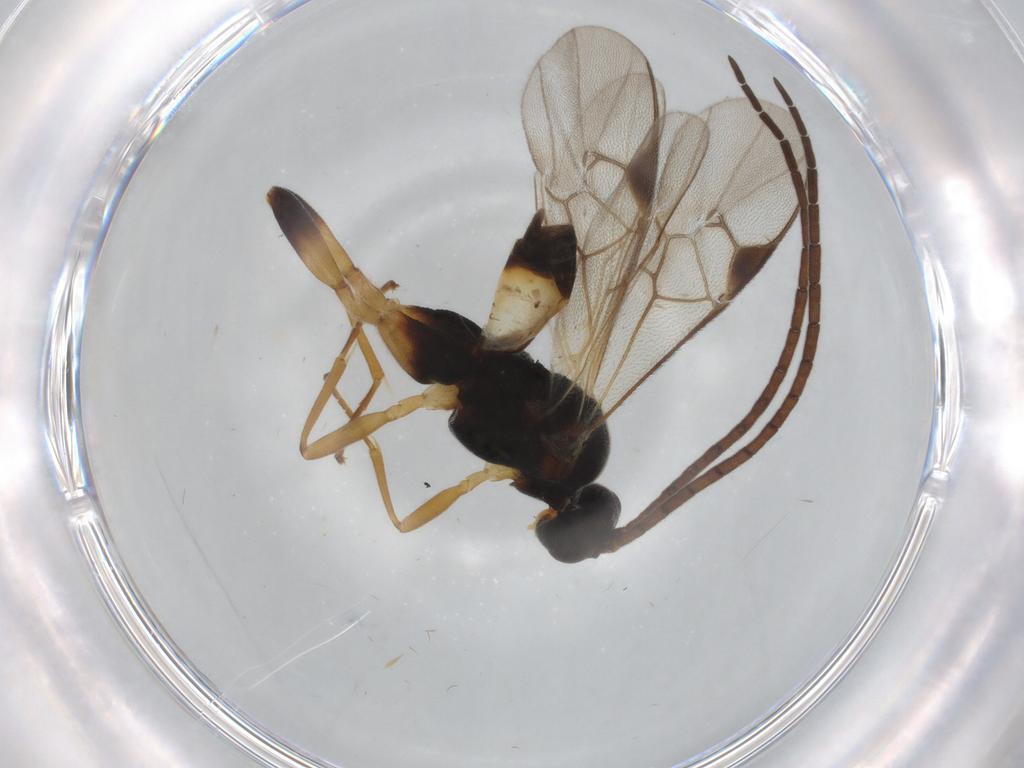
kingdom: Animalia
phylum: Arthropoda
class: Insecta
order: Hymenoptera
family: Braconidae
